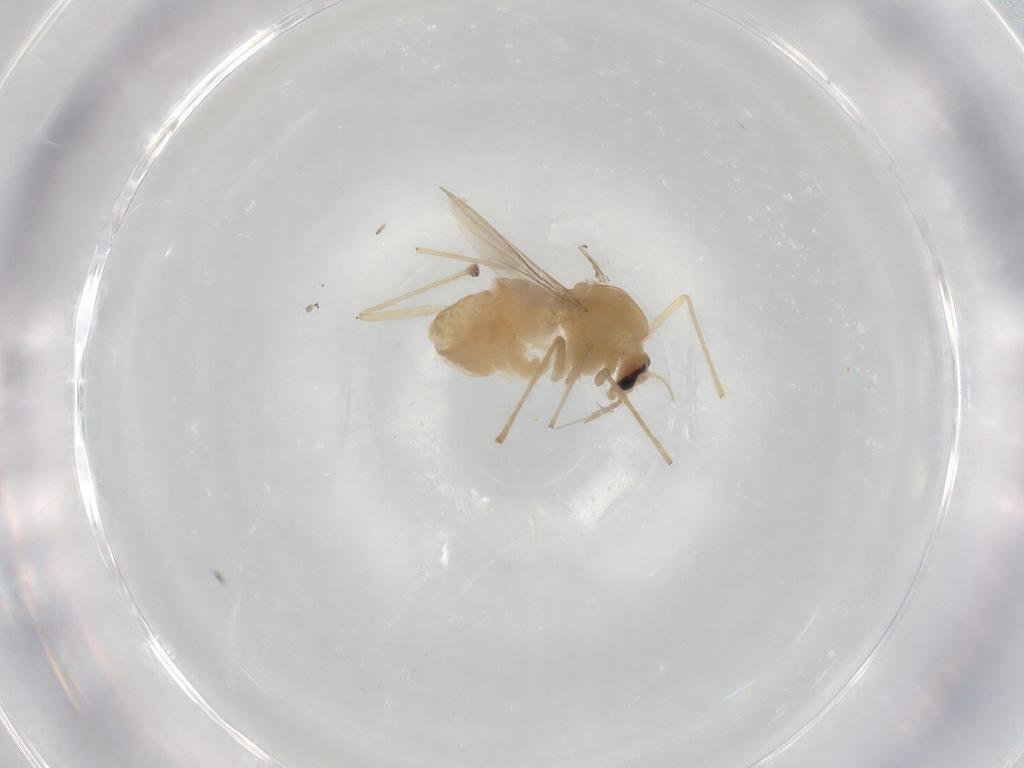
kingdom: Animalia
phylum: Arthropoda
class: Insecta
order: Diptera
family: Chironomidae
